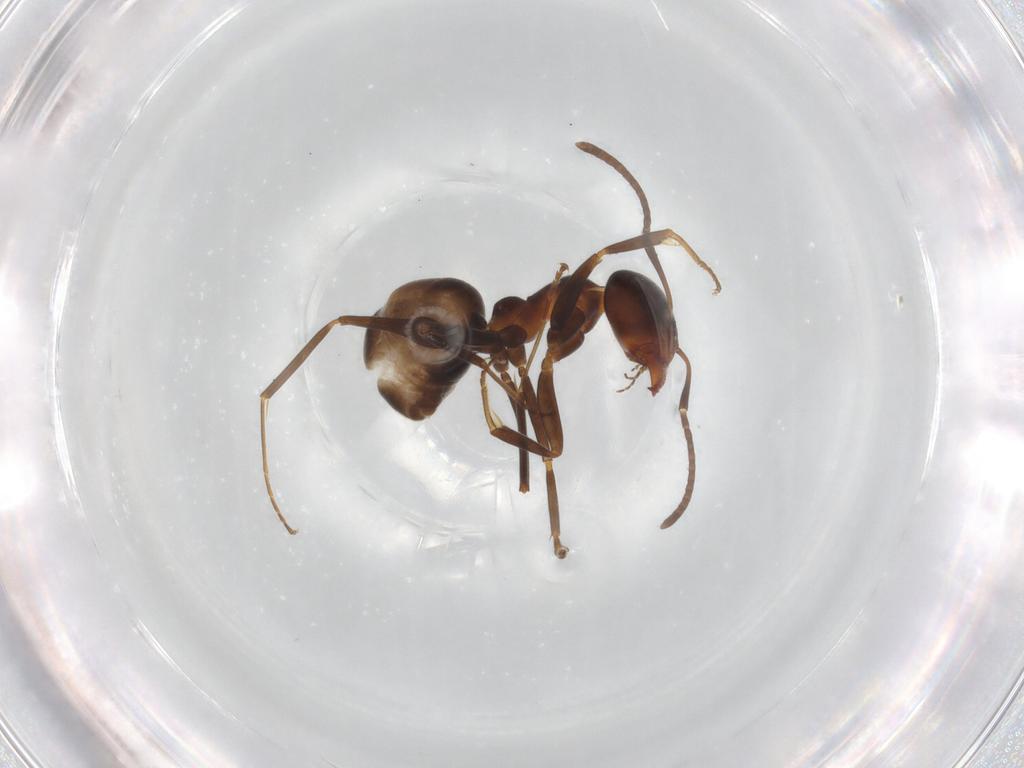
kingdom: Animalia
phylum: Arthropoda
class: Insecta
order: Hymenoptera
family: Formicidae
